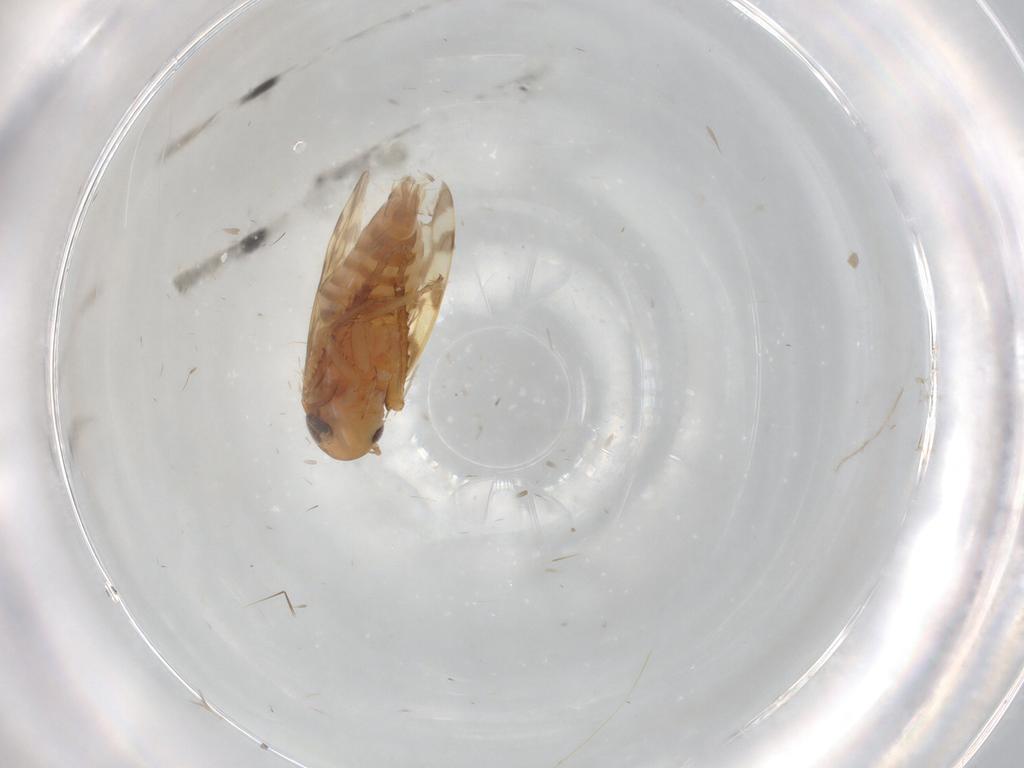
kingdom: Animalia
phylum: Arthropoda
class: Insecta
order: Hemiptera
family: Cicadellidae
